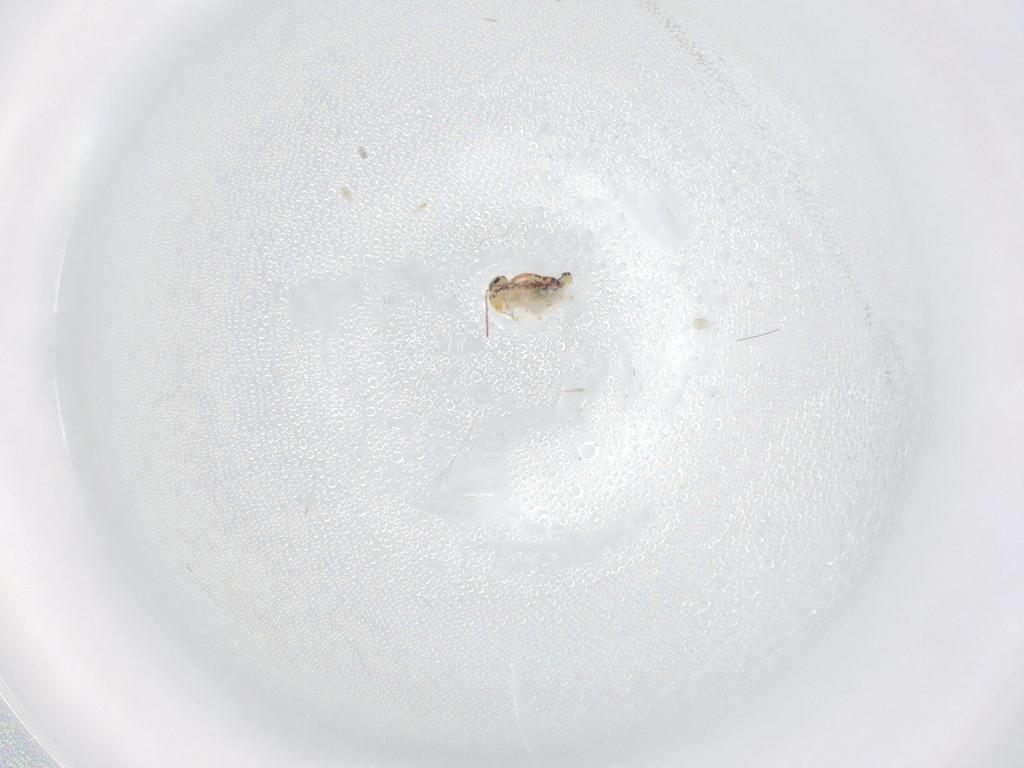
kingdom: Animalia
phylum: Arthropoda
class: Collembola
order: Symphypleona
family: Bourletiellidae
